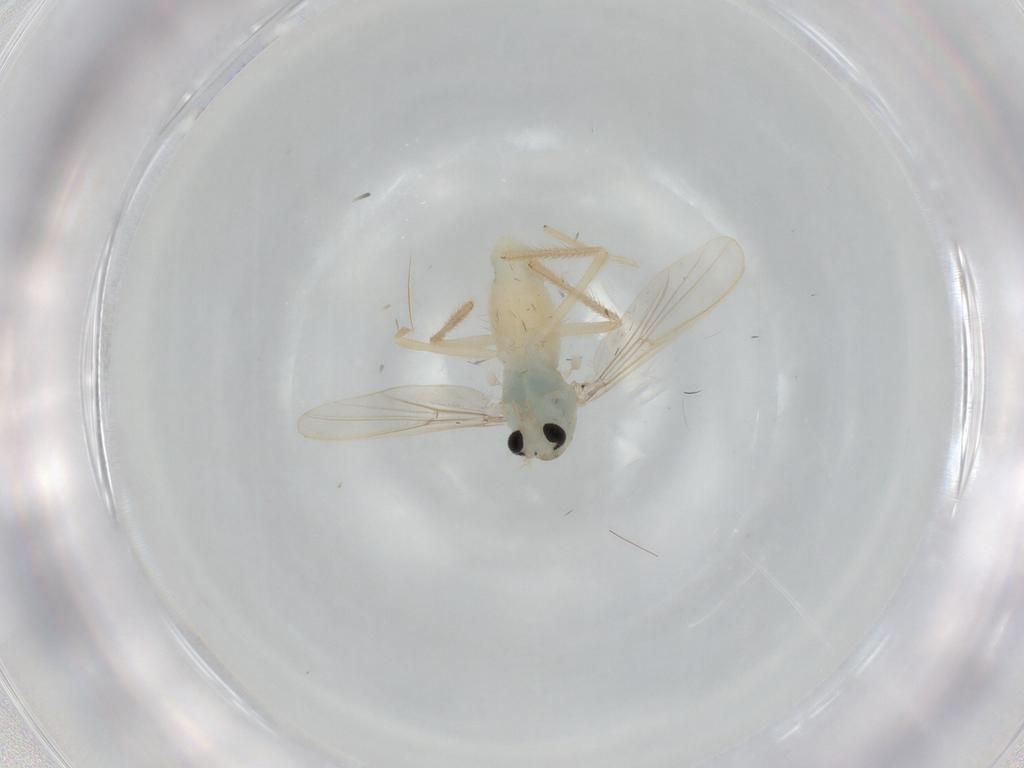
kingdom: Animalia
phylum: Arthropoda
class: Insecta
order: Diptera
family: Chironomidae
